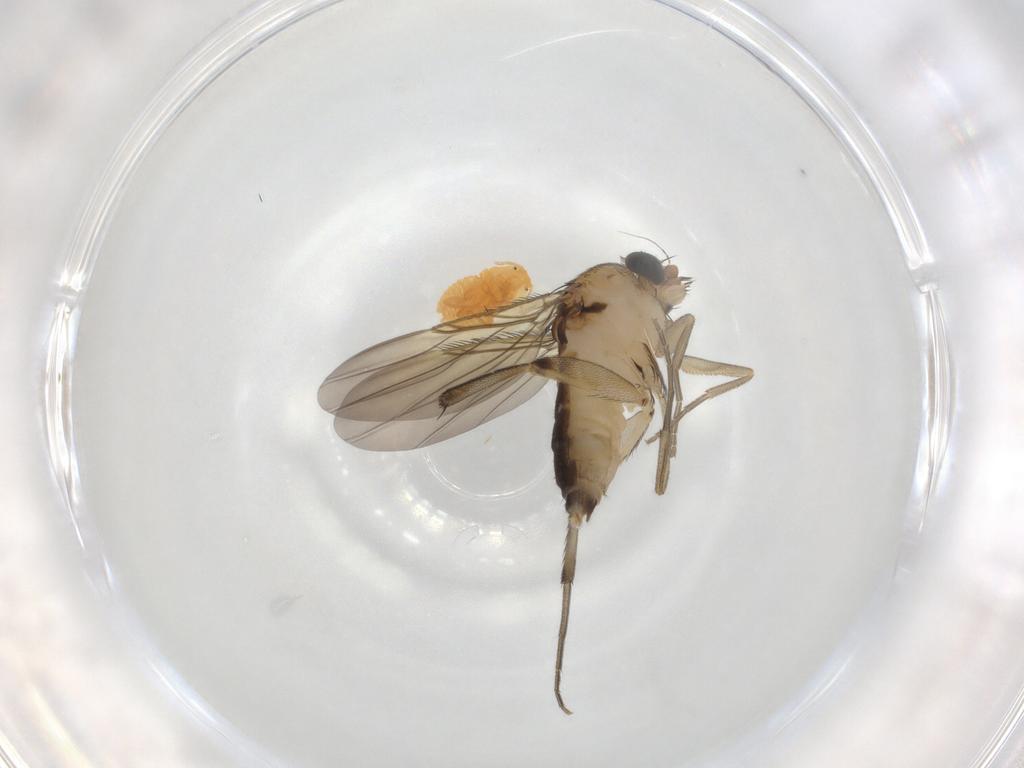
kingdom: Animalia
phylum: Arthropoda
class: Insecta
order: Diptera
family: Phoridae
